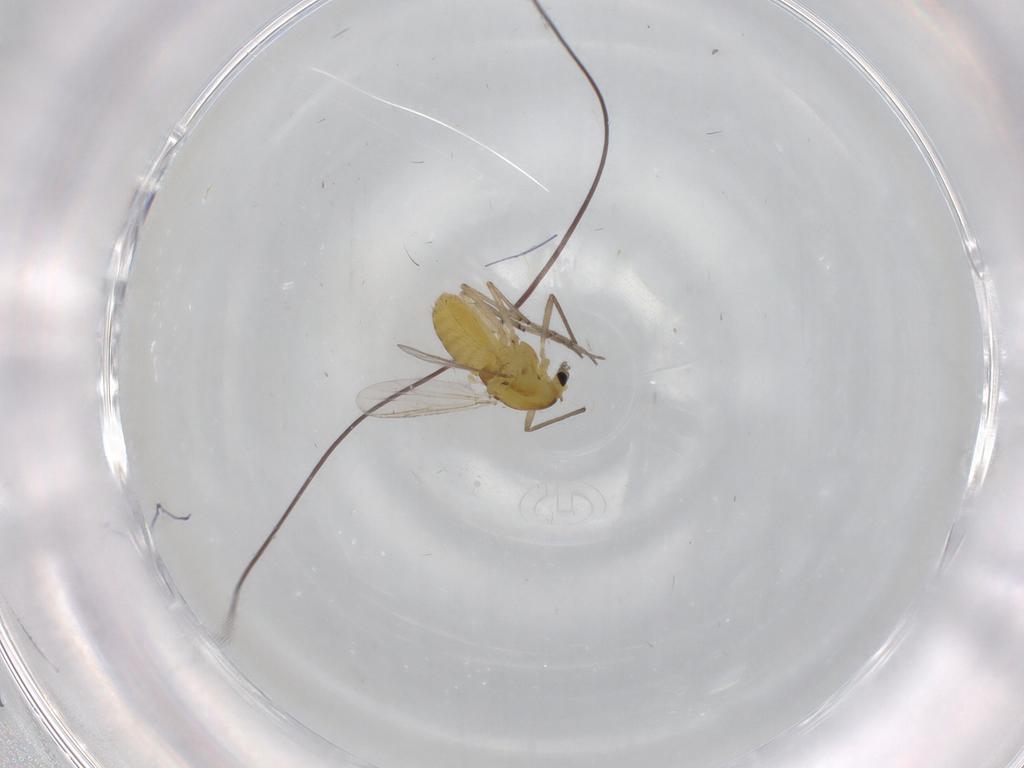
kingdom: Animalia
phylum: Arthropoda
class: Insecta
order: Diptera
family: Chironomidae
